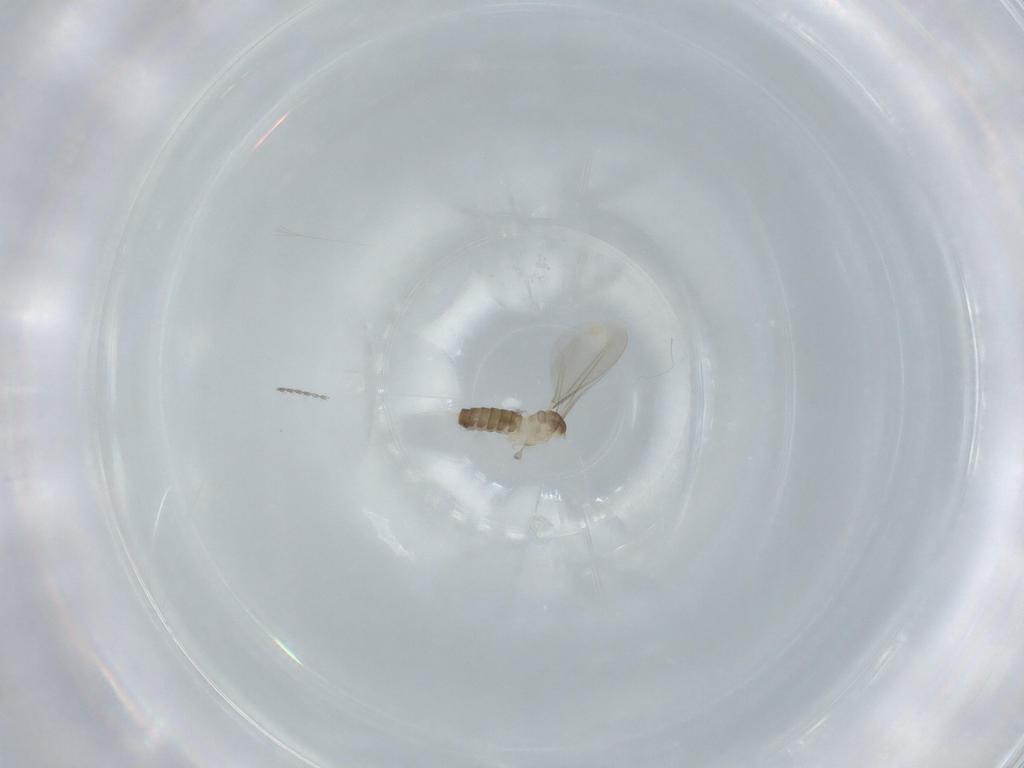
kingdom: Animalia
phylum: Arthropoda
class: Insecta
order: Diptera
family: Cecidomyiidae
